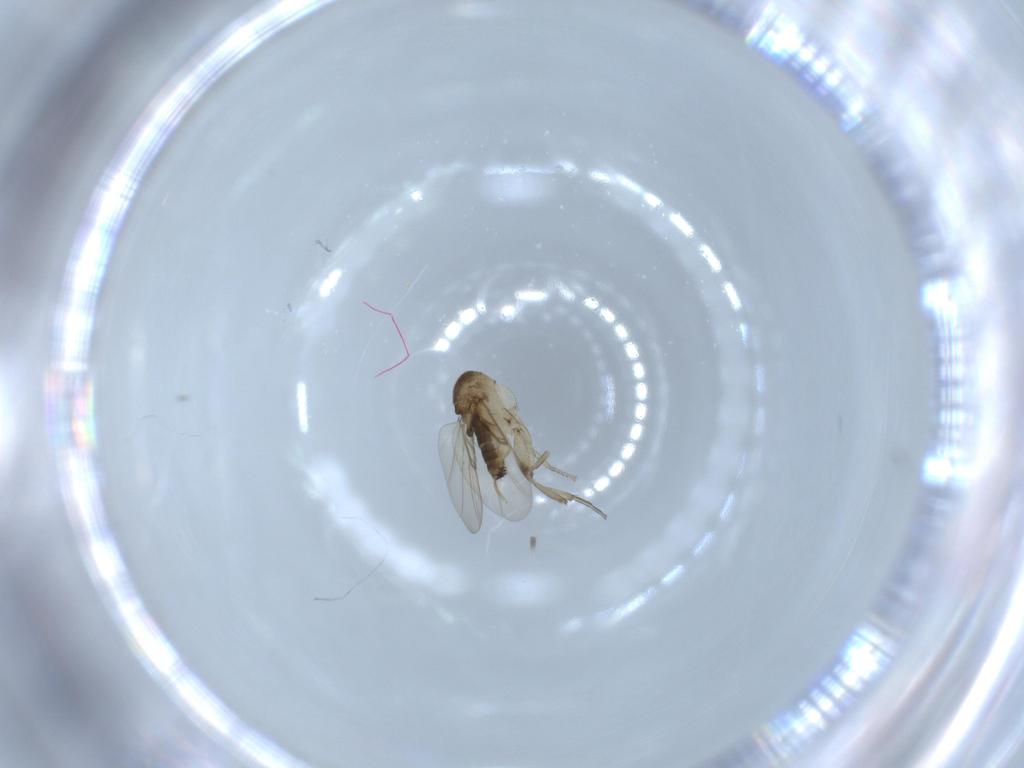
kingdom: Animalia
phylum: Arthropoda
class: Insecta
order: Diptera
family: Phoridae
